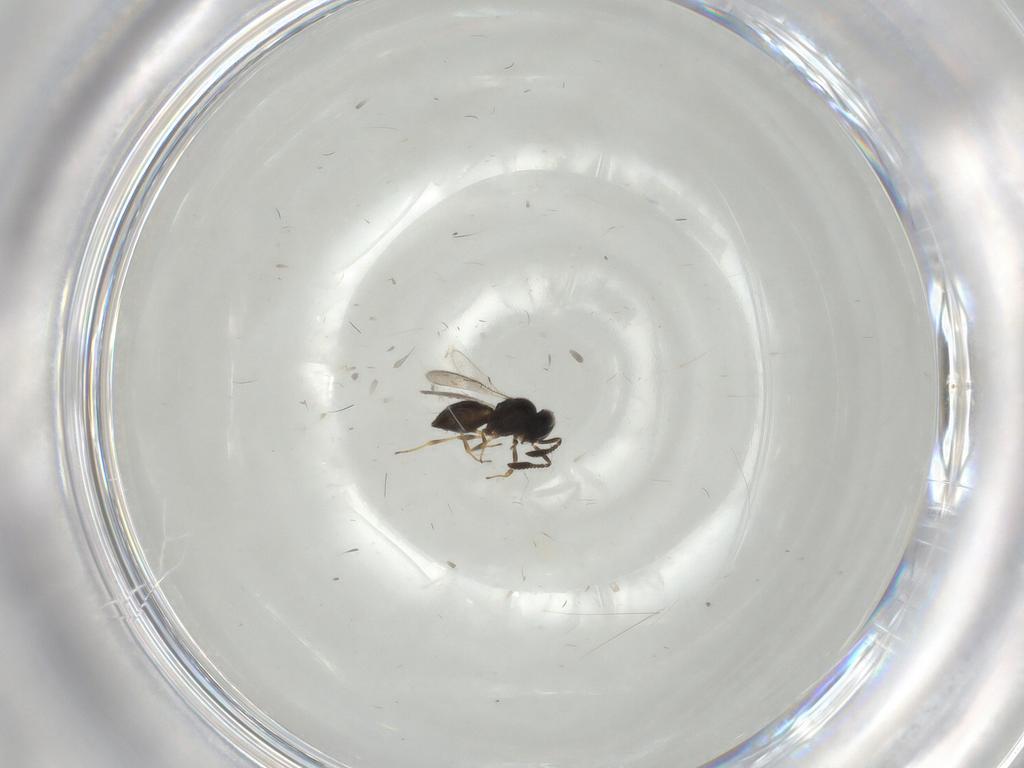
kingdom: Animalia
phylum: Arthropoda
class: Insecta
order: Hymenoptera
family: Scelionidae
